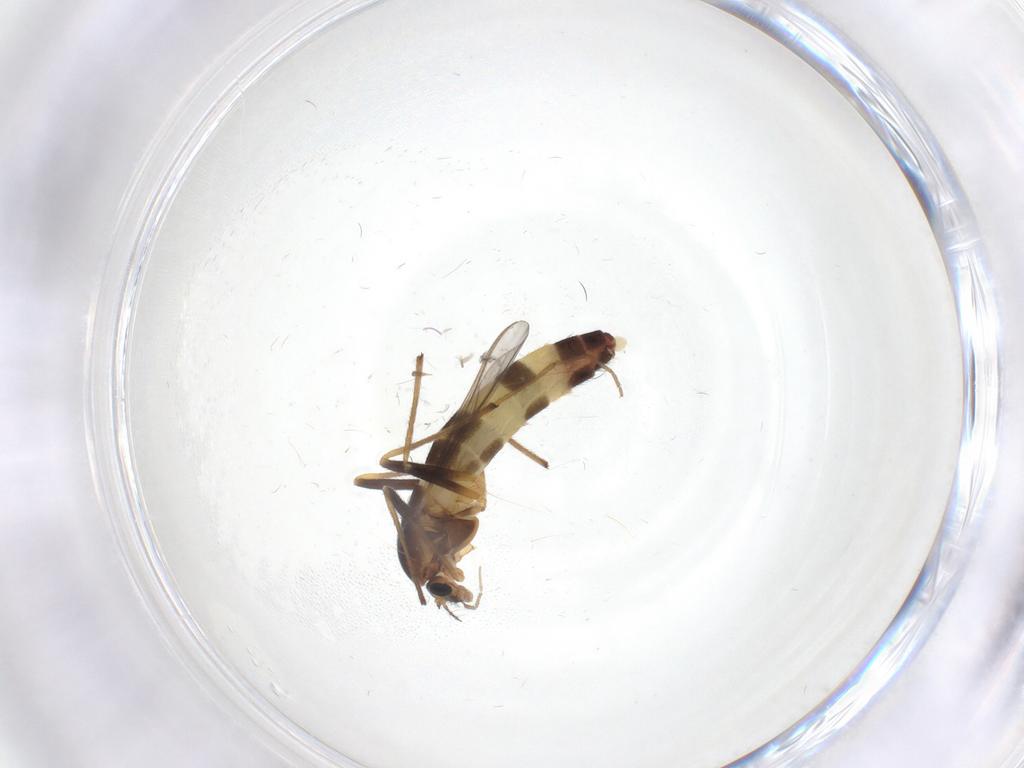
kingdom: Animalia
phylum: Arthropoda
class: Insecta
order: Diptera
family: Chironomidae
